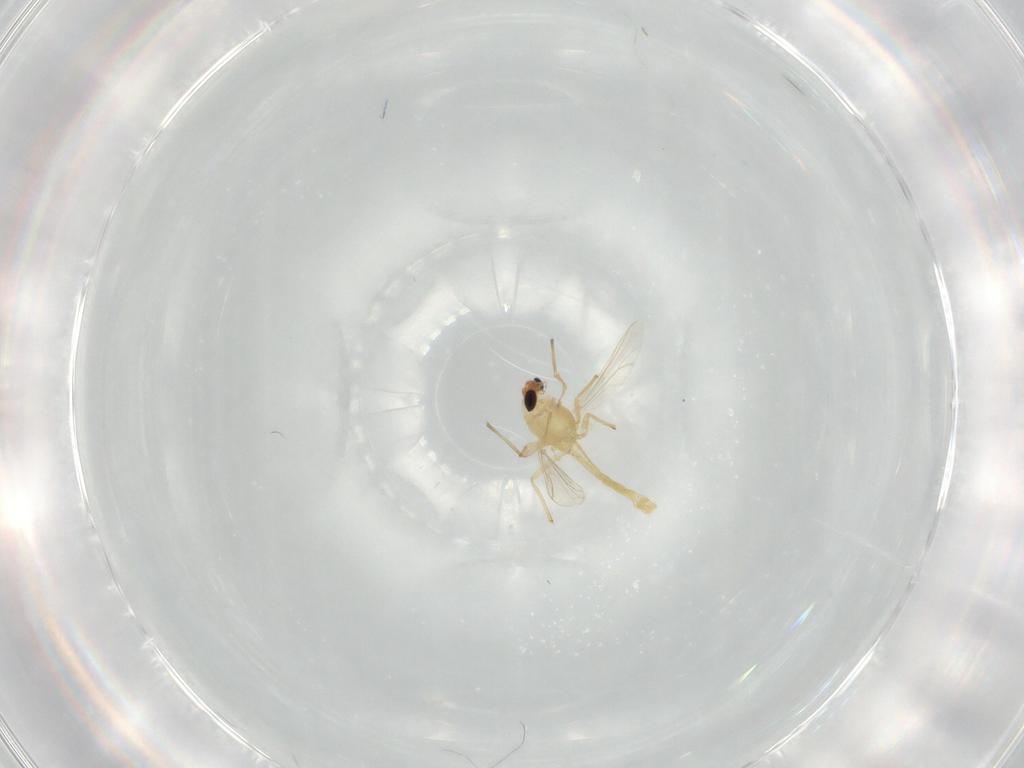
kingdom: Animalia
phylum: Arthropoda
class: Insecta
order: Diptera
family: Chironomidae
